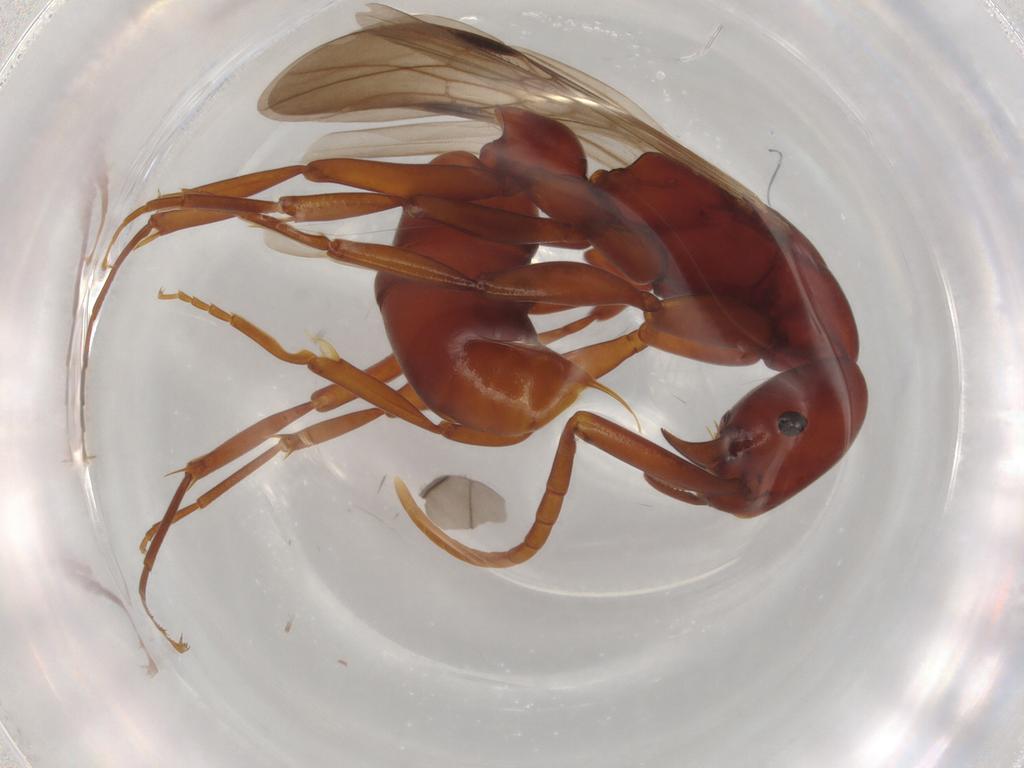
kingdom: Animalia
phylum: Arthropoda
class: Insecta
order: Hymenoptera
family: Formicidae
